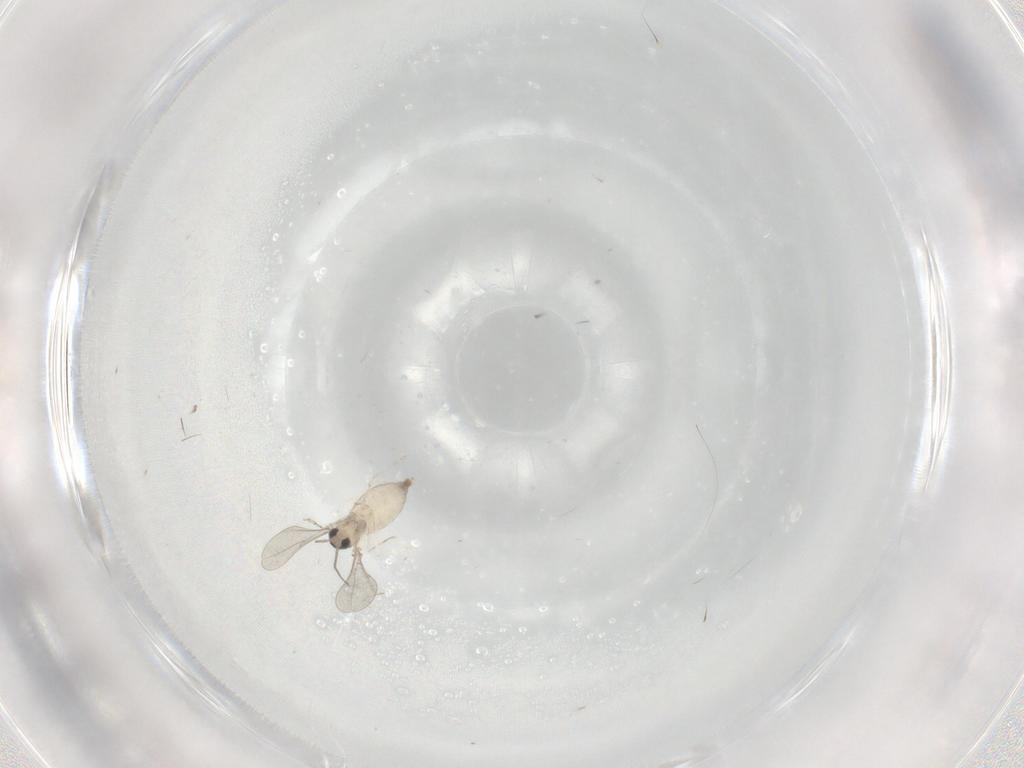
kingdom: Animalia
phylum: Arthropoda
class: Insecta
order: Diptera
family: Cecidomyiidae
